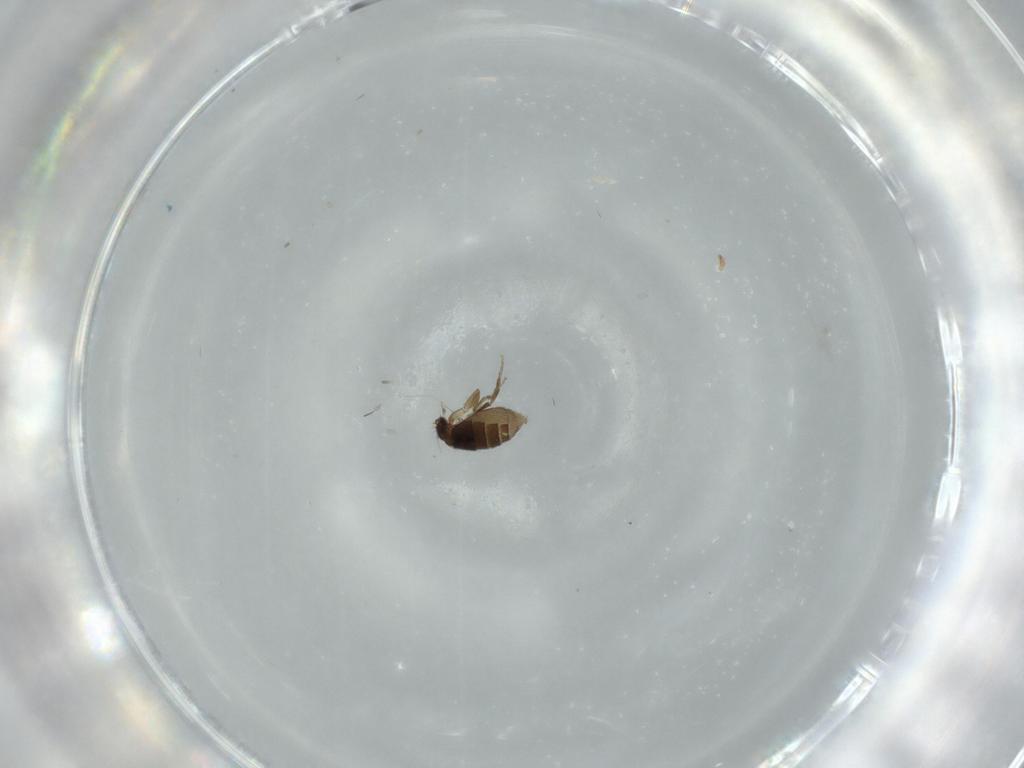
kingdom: Animalia
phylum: Arthropoda
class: Insecta
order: Diptera
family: Phoridae
